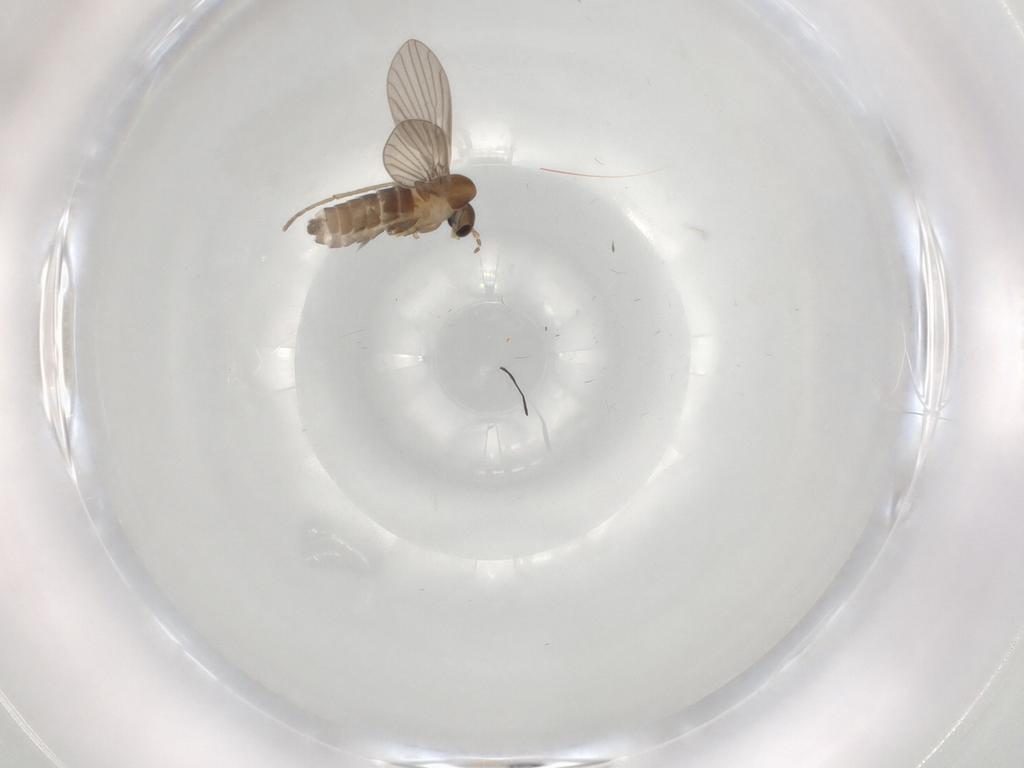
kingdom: Animalia
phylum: Arthropoda
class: Insecta
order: Diptera
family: Psychodidae
